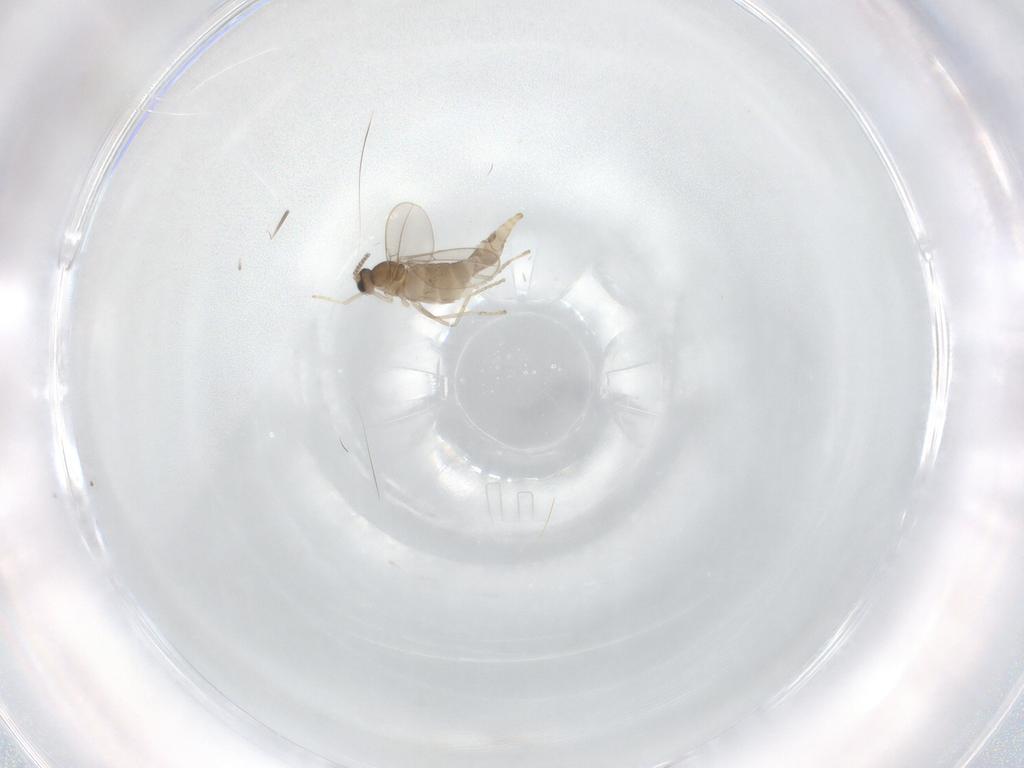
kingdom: Animalia
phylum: Arthropoda
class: Insecta
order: Diptera
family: Cecidomyiidae
